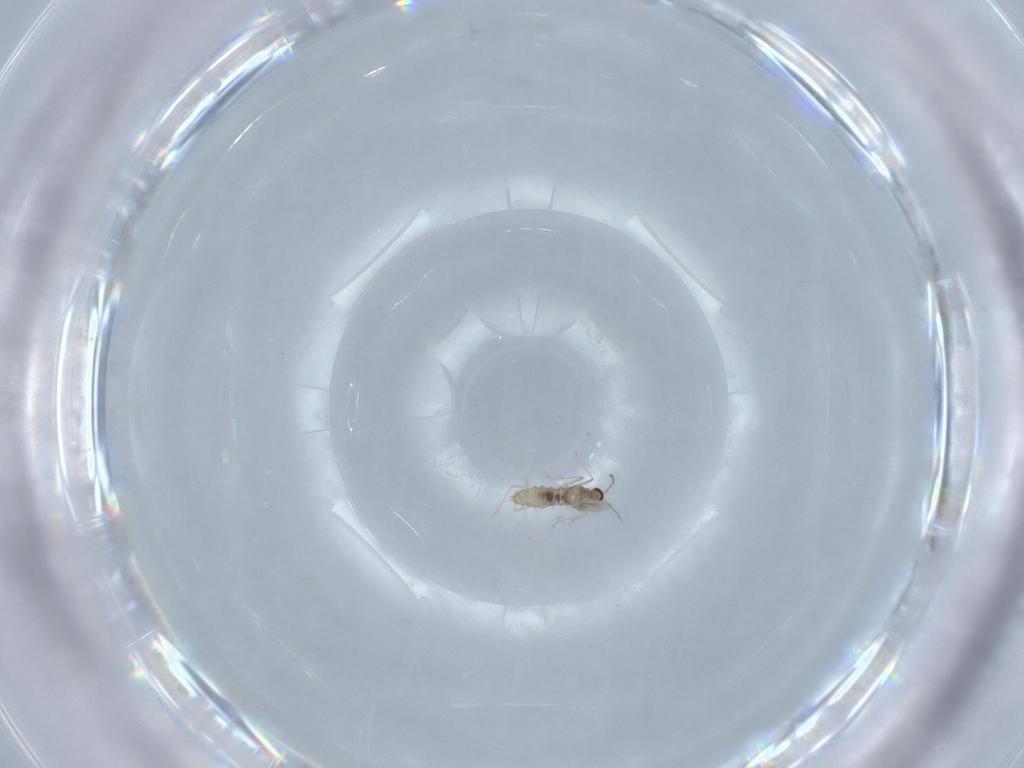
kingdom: Animalia
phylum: Arthropoda
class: Insecta
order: Diptera
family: Cecidomyiidae
